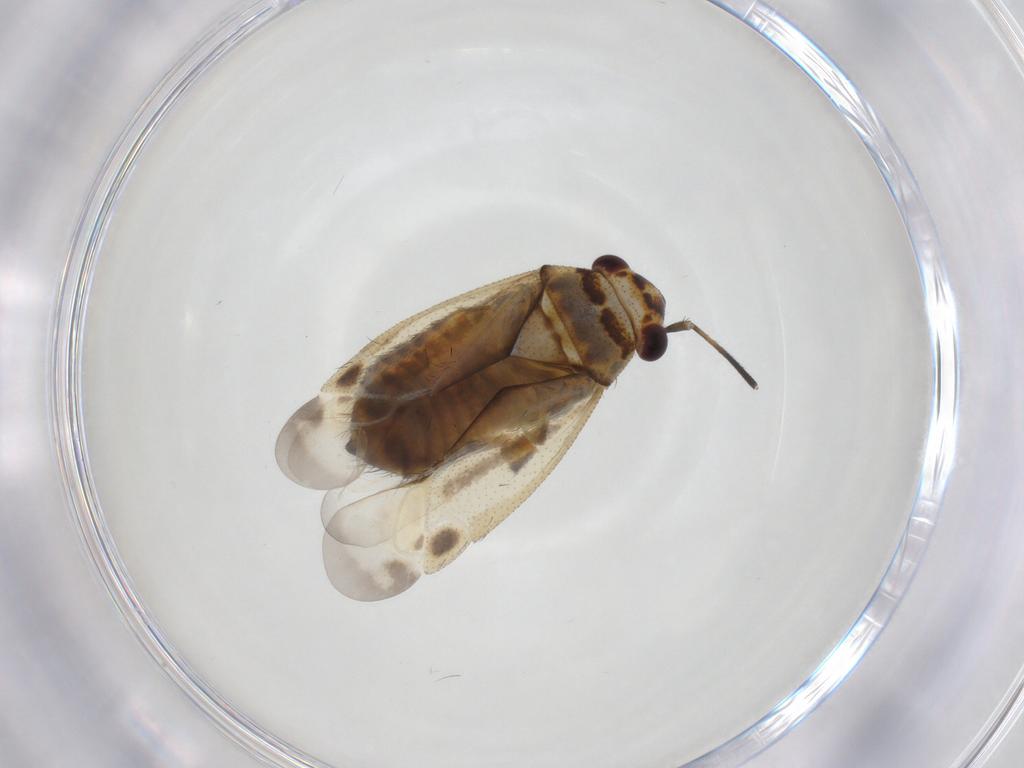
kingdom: Animalia
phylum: Arthropoda
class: Insecta
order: Hemiptera
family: Miridae
